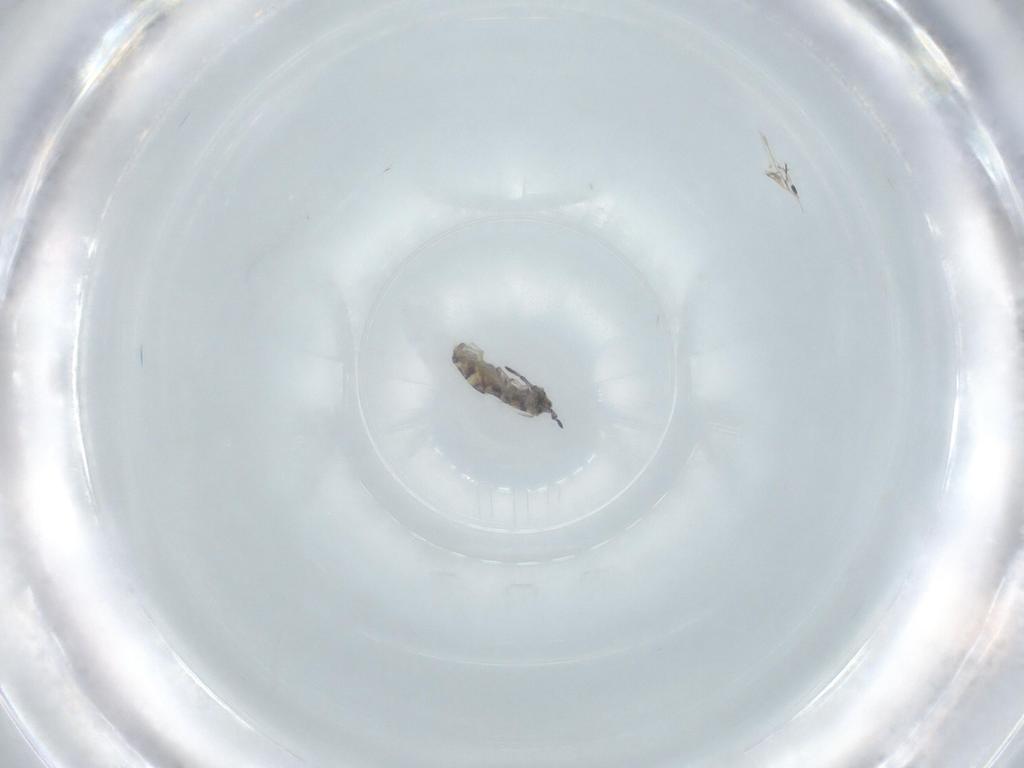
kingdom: Animalia
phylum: Arthropoda
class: Collembola
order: Entomobryomorpha
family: Isotomidae
